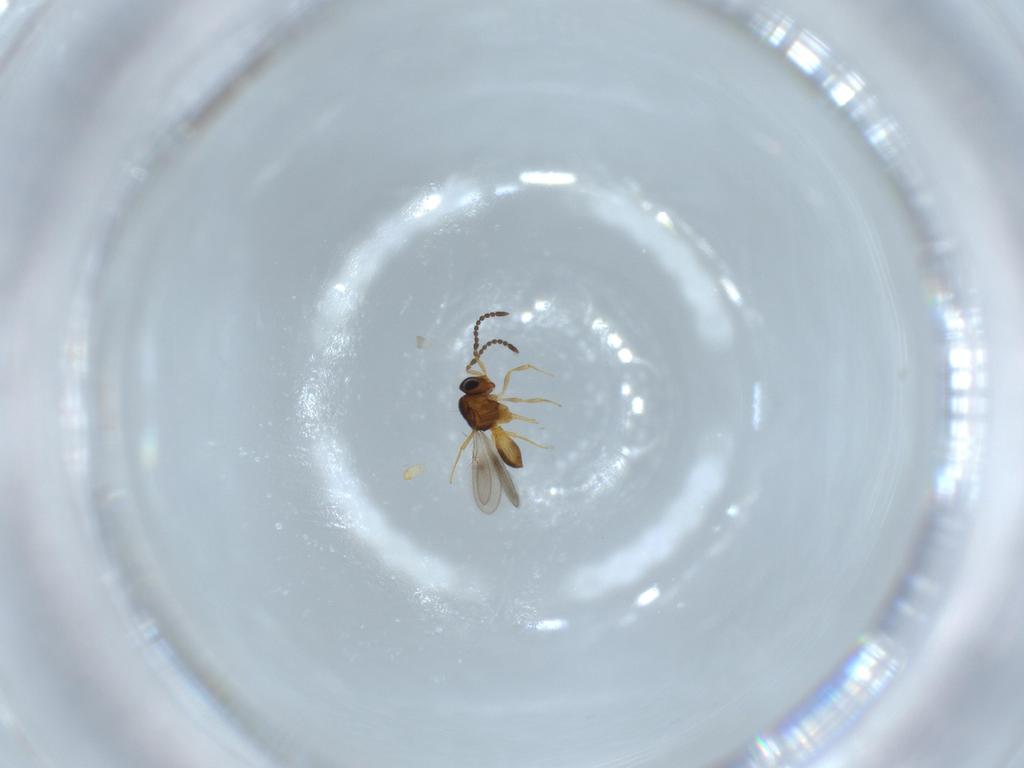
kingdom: Animalia
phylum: Arthropoda
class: Insecta
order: Hymenoptera
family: Scelionidae
